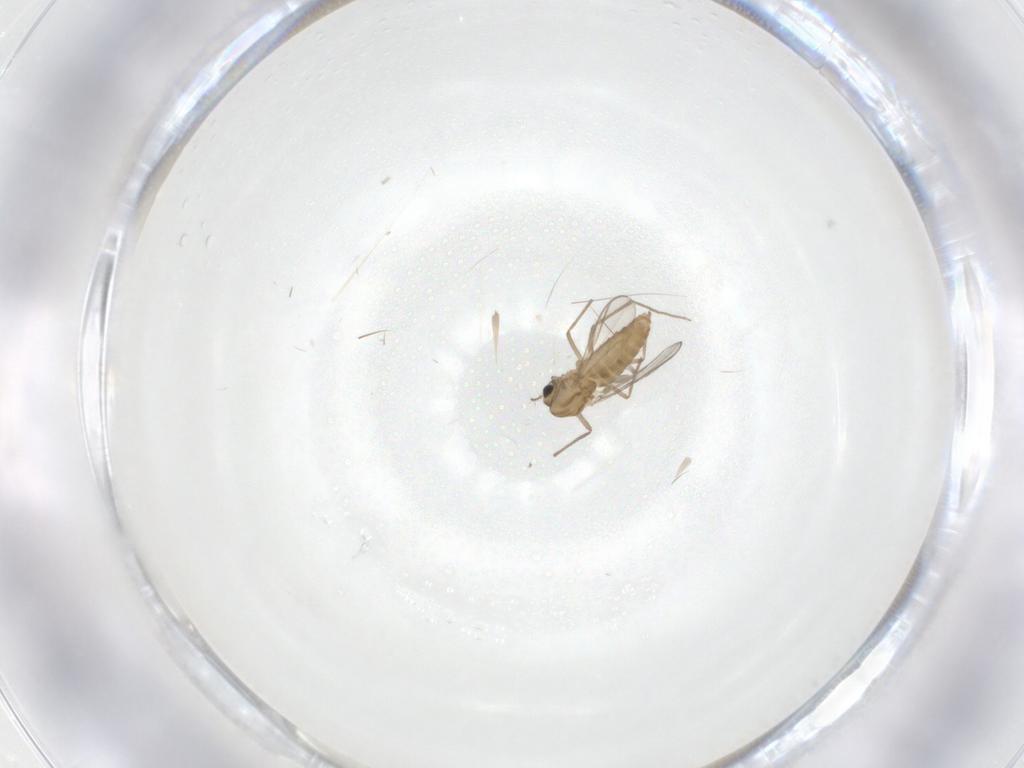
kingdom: Animalia
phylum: Arthropoda
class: Insecta
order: Diptera
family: Chironomidae
